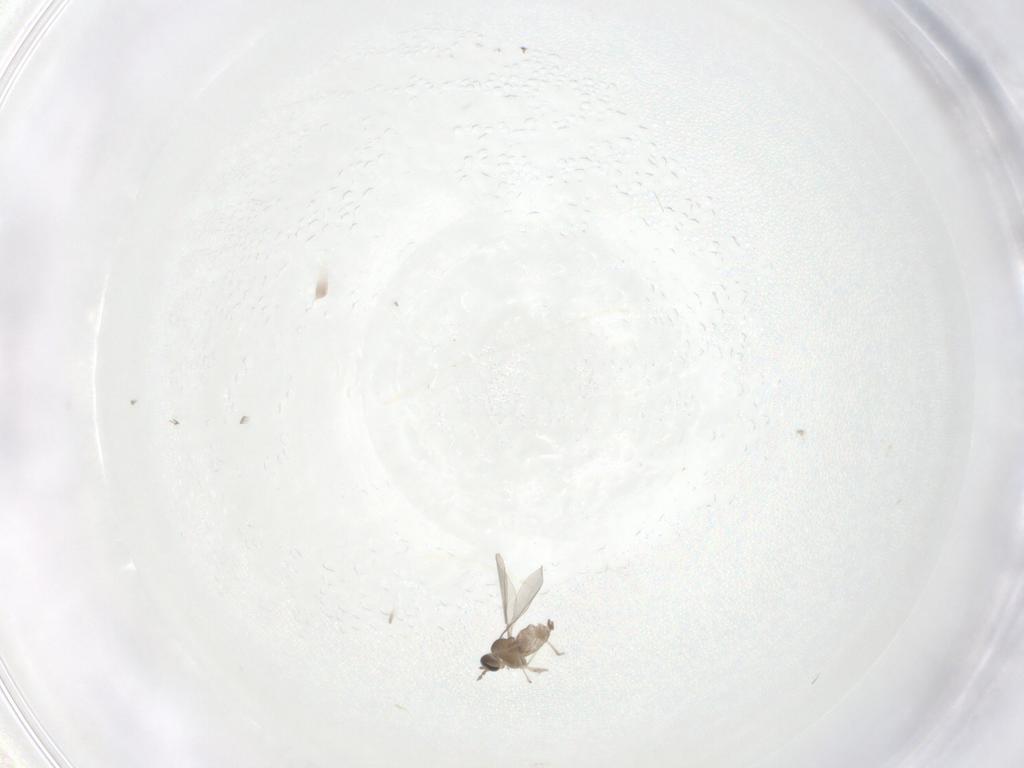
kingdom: Animalia
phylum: Arthropoda
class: Insecta
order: Diptera
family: Cecidomyiidae
